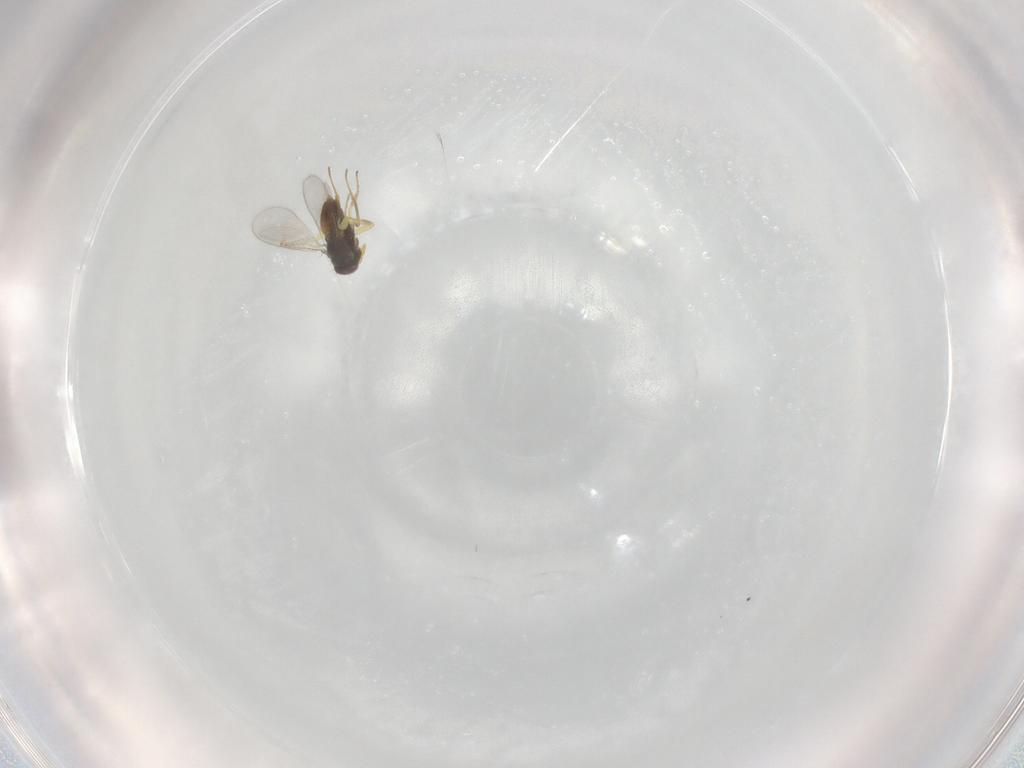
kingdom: Animalia
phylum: Arthropoda
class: Insecta
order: Hymenoptera
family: Aphelinidae
